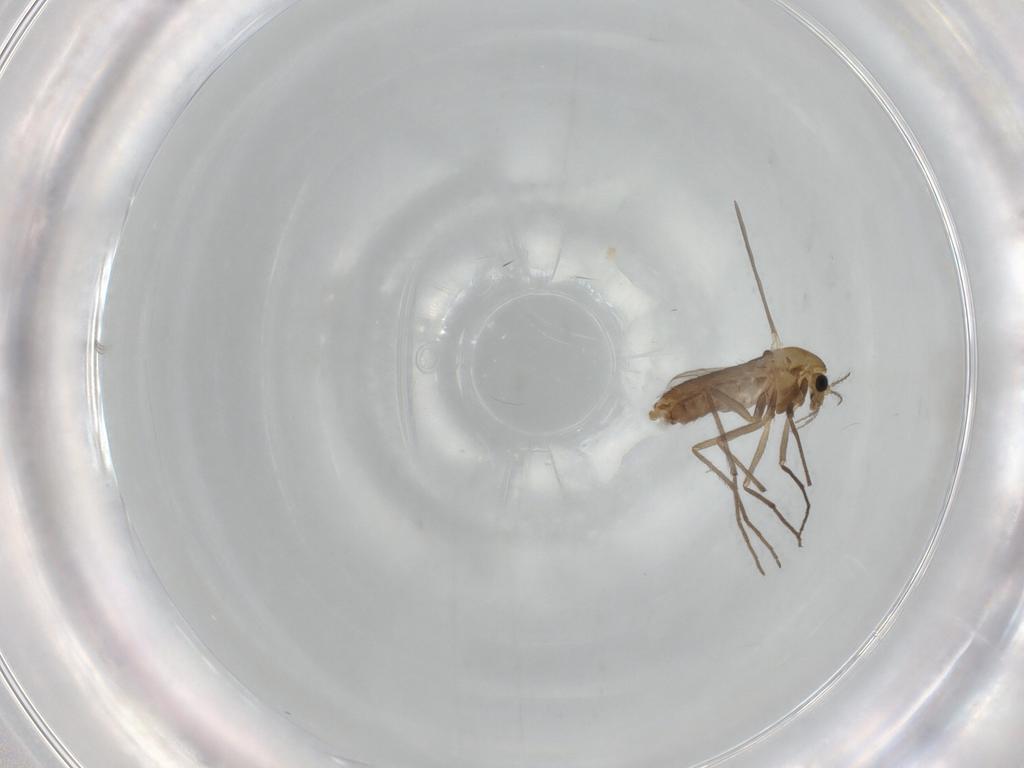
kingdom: Animalia
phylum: Arthropoda
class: Insecta
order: Diptera
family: Chironomidae
